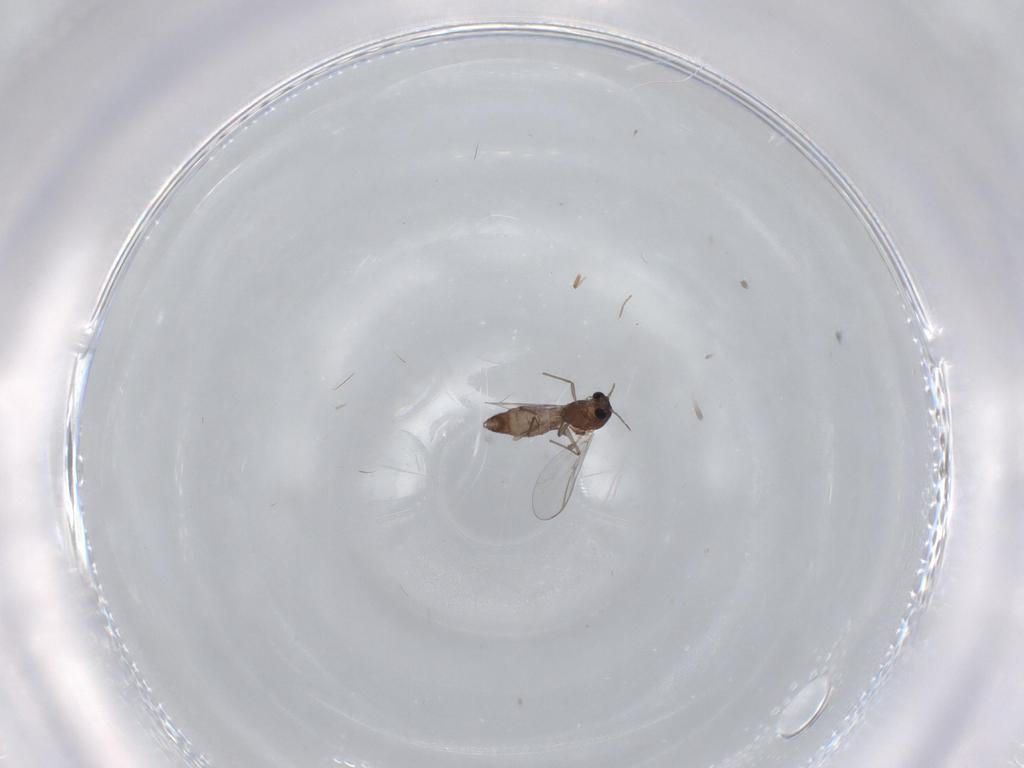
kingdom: Animalia
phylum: Arthropoda
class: Insecta
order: Diptera
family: Chironomidae
